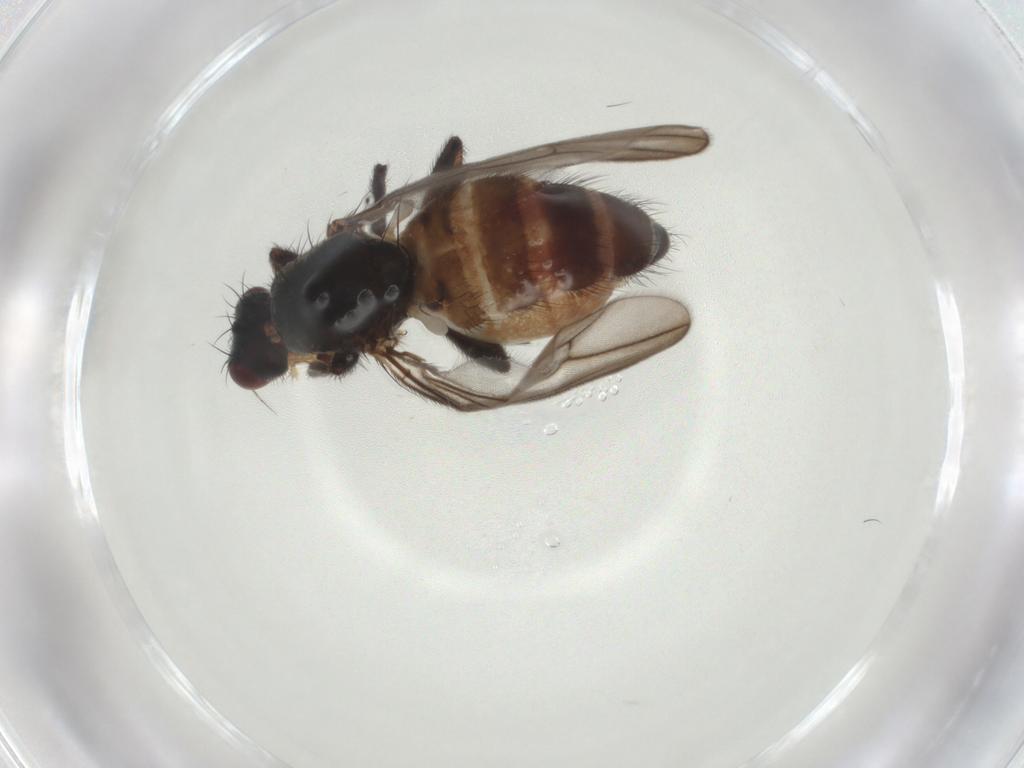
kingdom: Animalia
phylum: Arthropoda
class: Insecta
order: Diptera
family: Chloropidae
